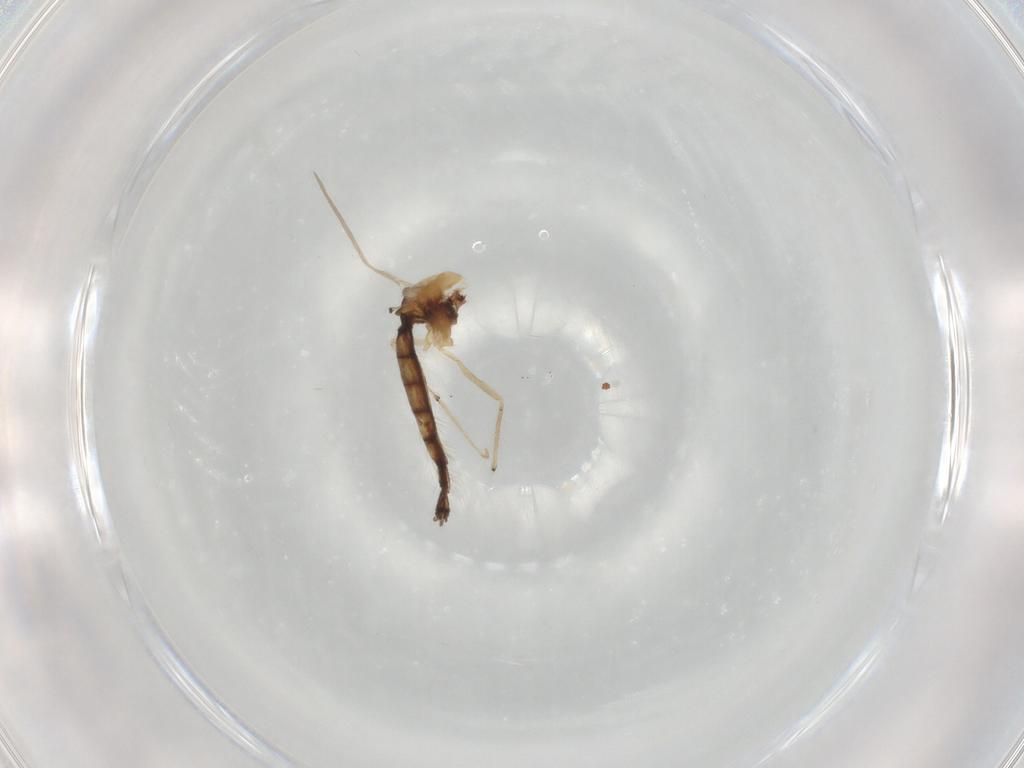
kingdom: Animalia
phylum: Arthropoda
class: Insecta
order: Diptera
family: Chironomidae
